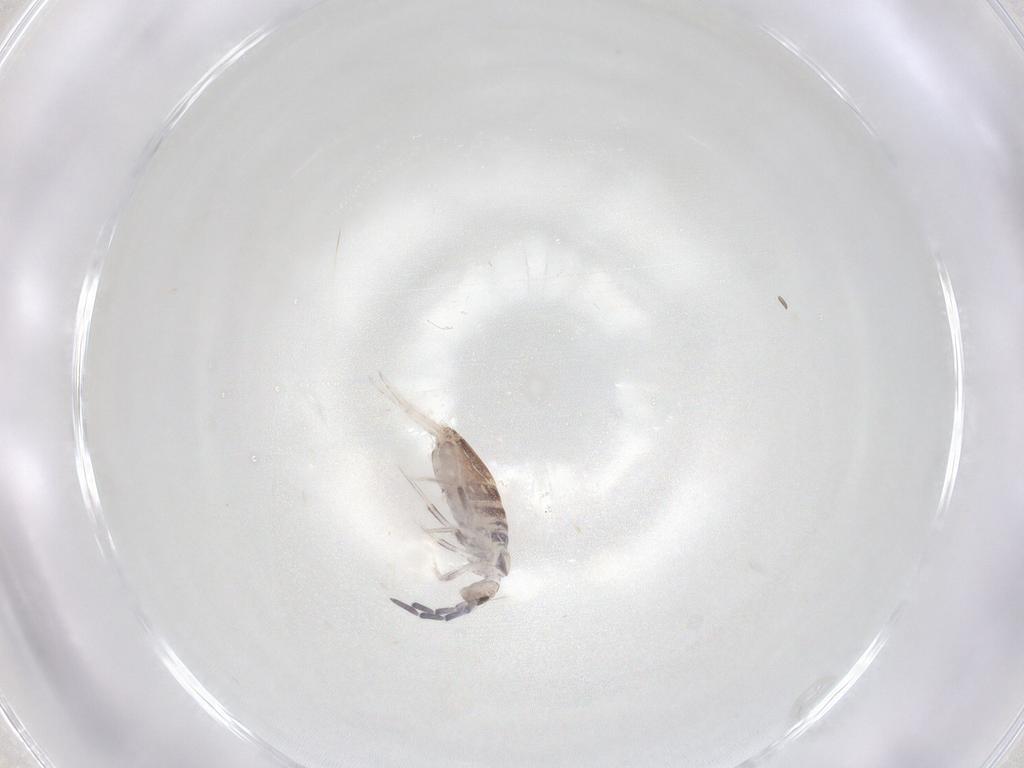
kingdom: Animalia
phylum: Arthropoda
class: Collembola
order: Poduromorpha
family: Hypogastruridae
